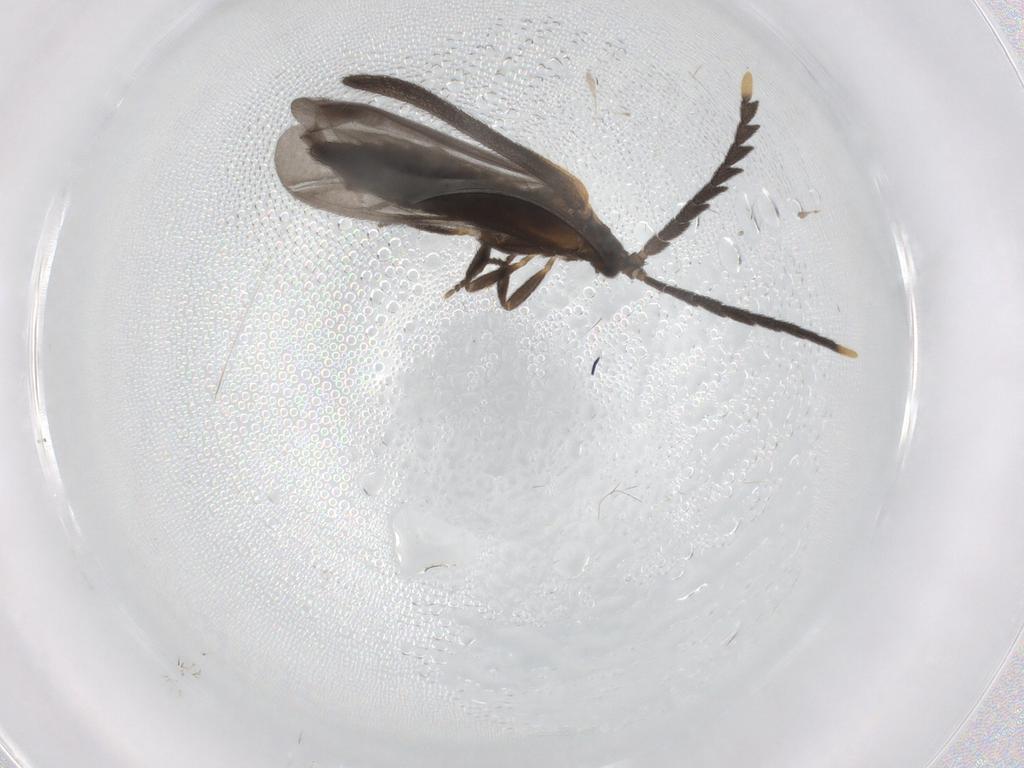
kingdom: Animalia
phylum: Arthropoda
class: Insecta
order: Coleoptera
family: Lycidae
